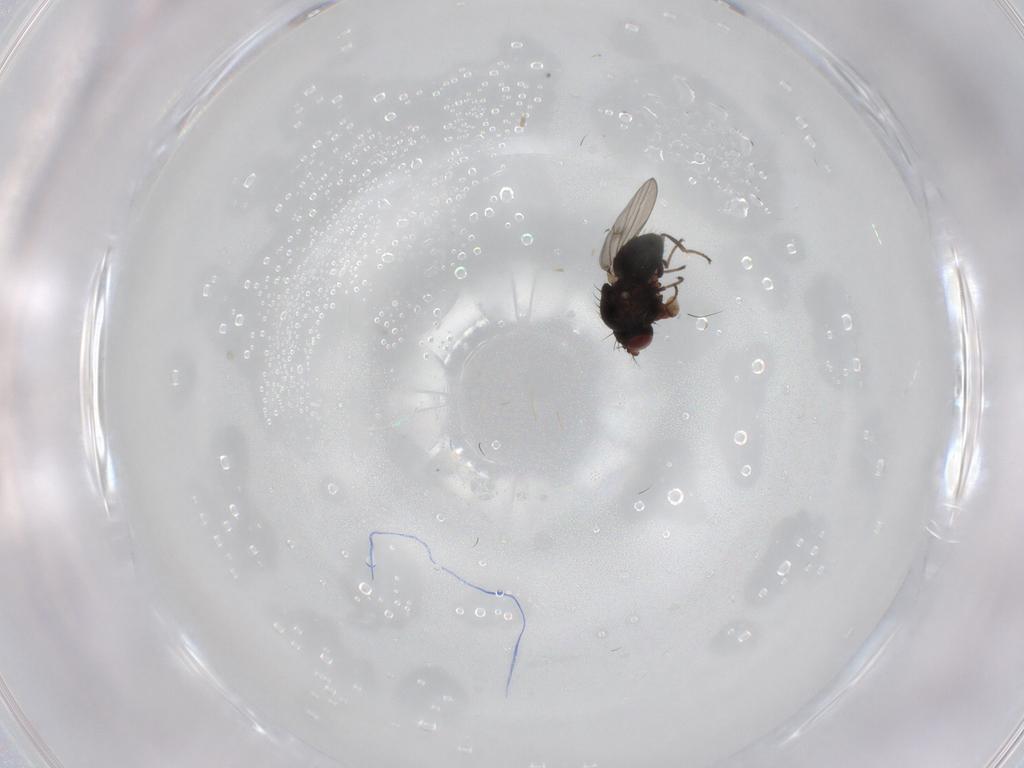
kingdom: Animalia
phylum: Arthropoda
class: Insecta
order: Diptera
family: Ephydridae
